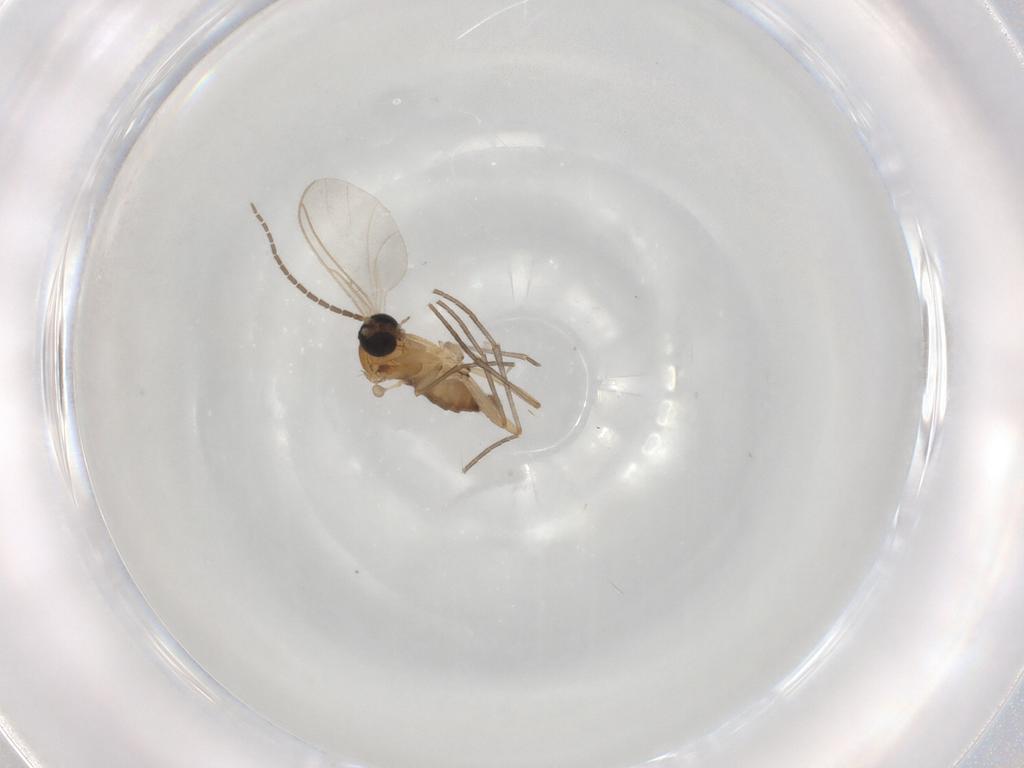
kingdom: Animalia
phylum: Arthropoda
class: Insecta
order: Diptera
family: Sciaridae
